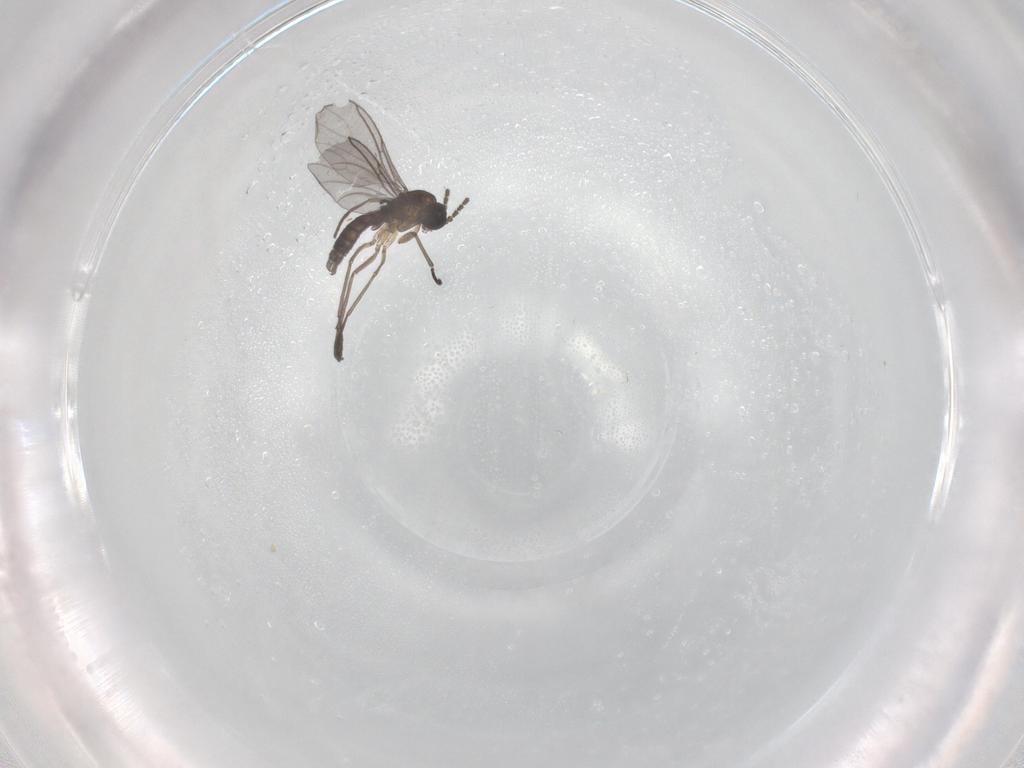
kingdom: Animalia
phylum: Arthropoda
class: Insecta
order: Diptera
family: Sciaridae
